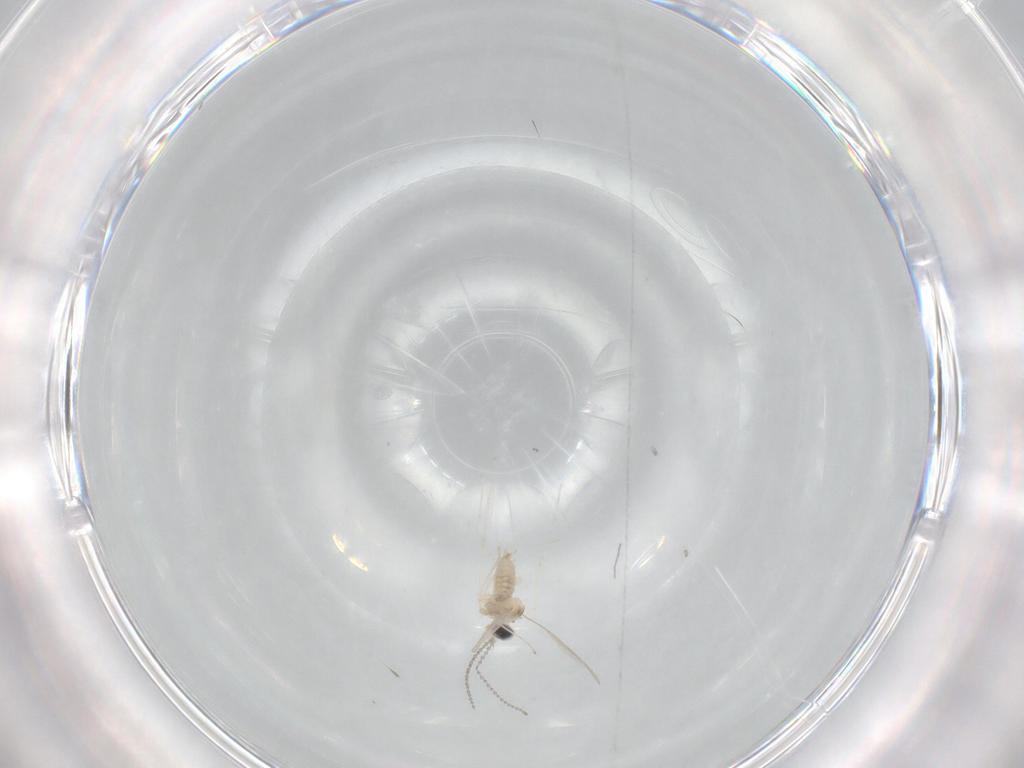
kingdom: Animalia
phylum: Arthropoda
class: Insecta
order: Diptera
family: Cecidomyiidae
